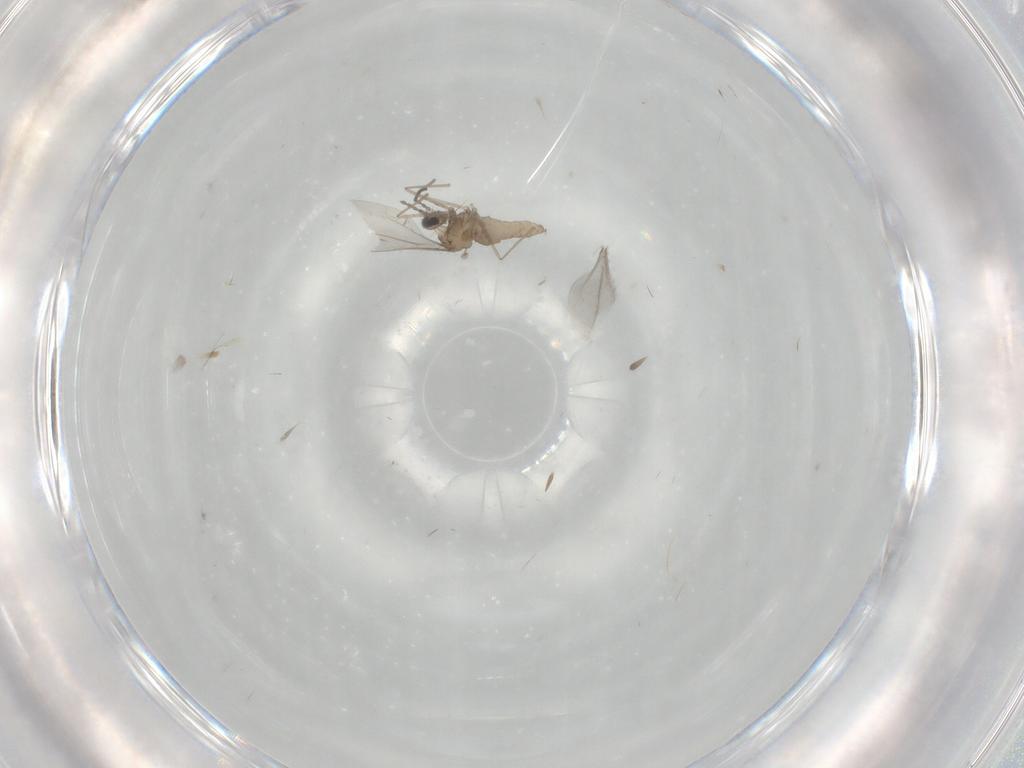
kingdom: Animalia
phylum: Arthropoda
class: Insecta
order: Diptera
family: Cecidomyiidae
